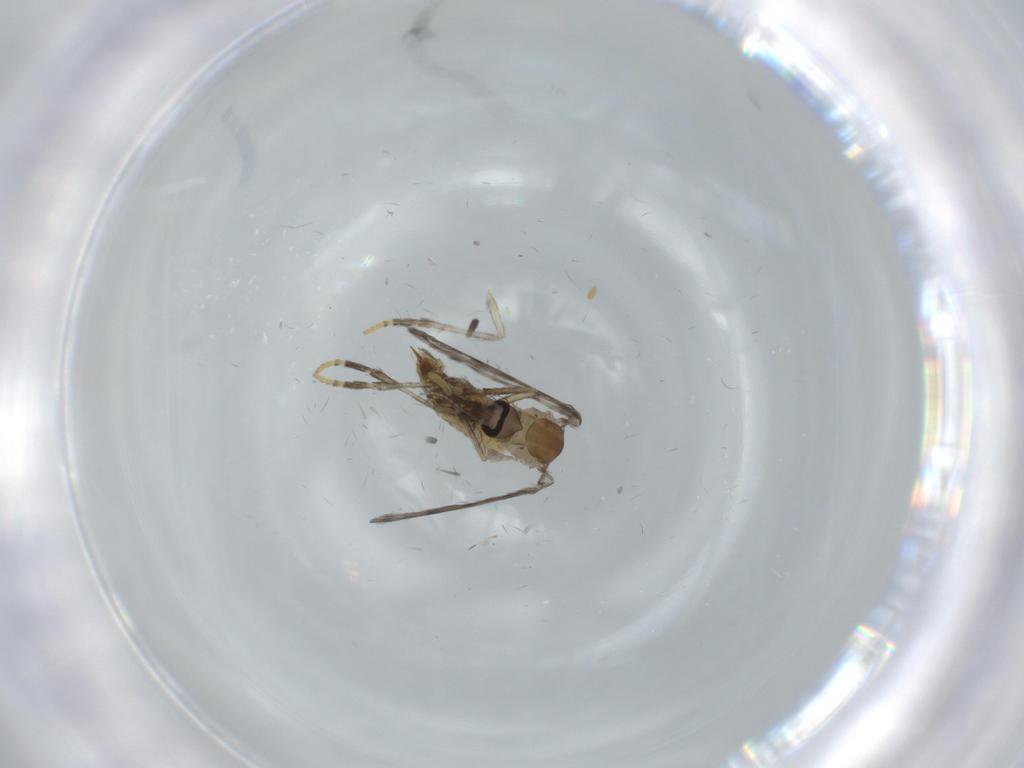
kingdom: Animalia
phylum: Arthropoda
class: Insecta
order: Diptera
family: Psychodidae
